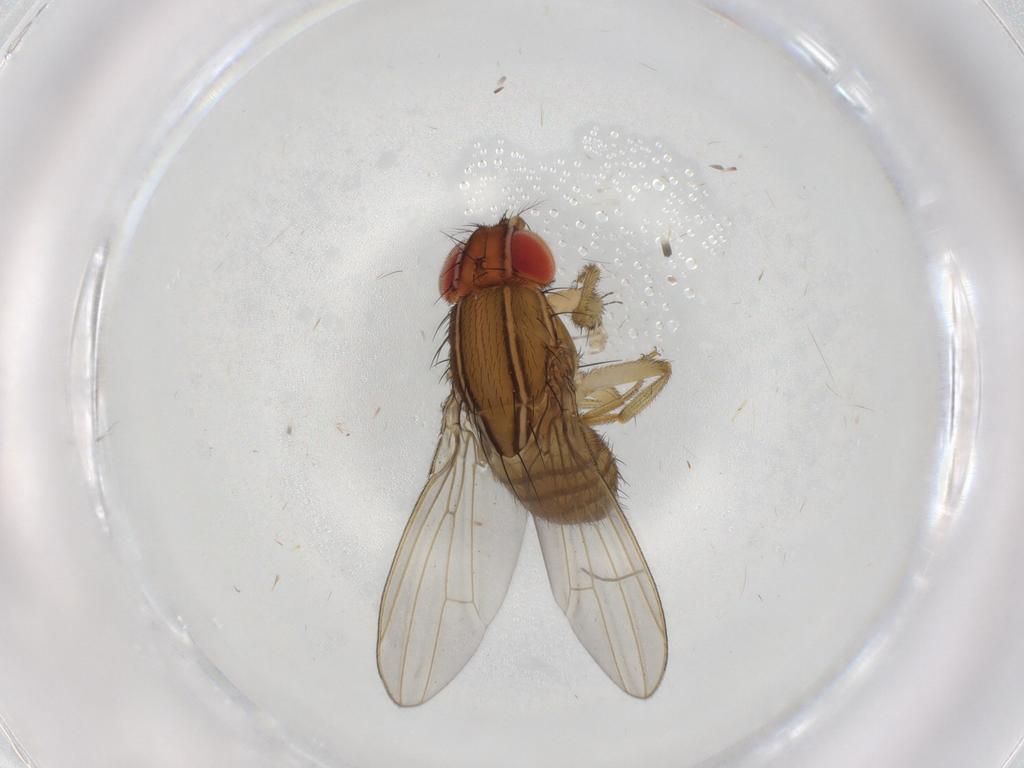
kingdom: Animalia
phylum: Arthropoda
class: Insecta
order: Diptera
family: Drosophilidae
